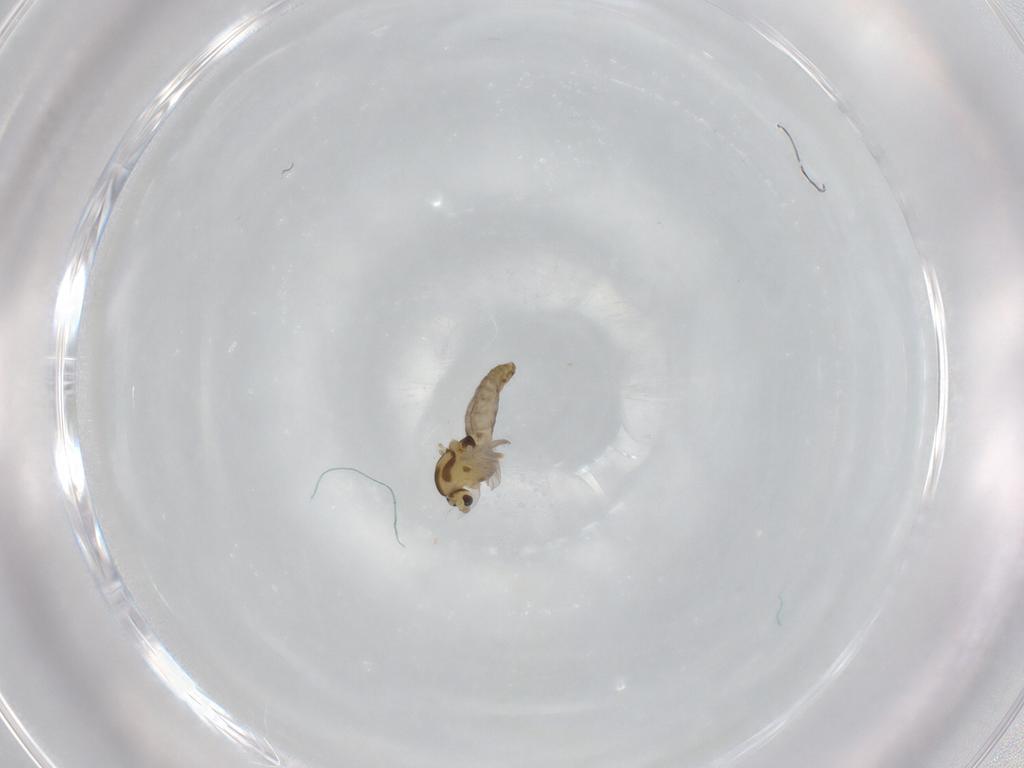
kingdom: Animalia
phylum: Arthropoda
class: Insecta
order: Diptera
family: Chironomidae
